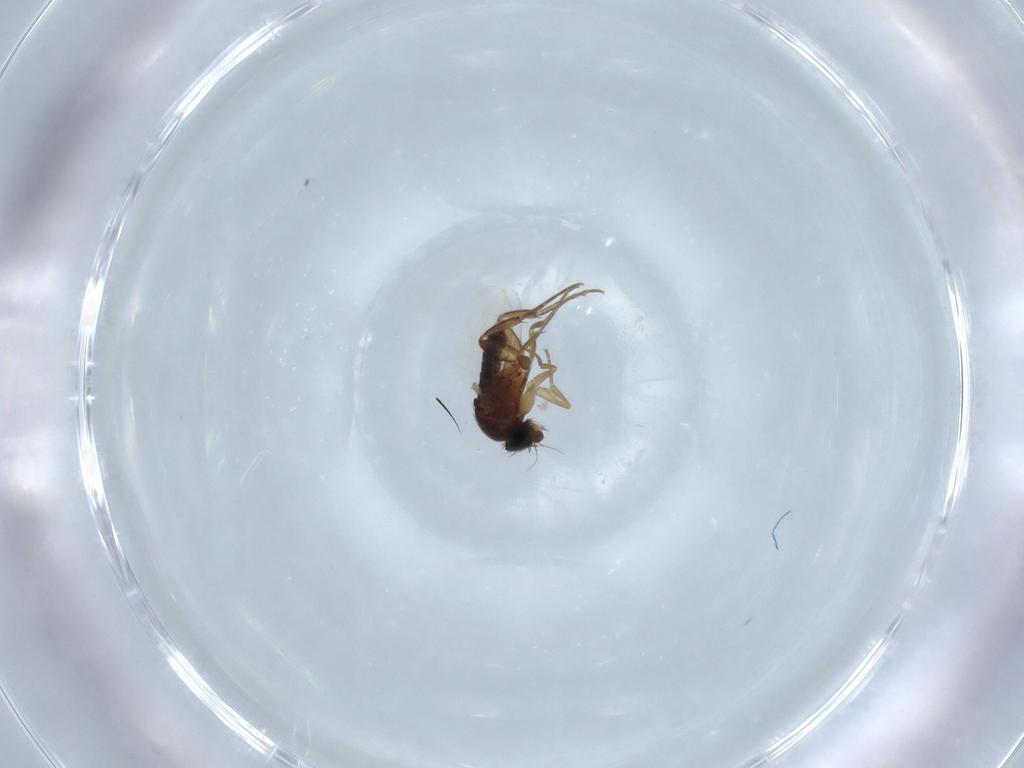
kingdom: Animalia
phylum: Arthropoda
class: Insecta
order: Diptera
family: Phoridae
